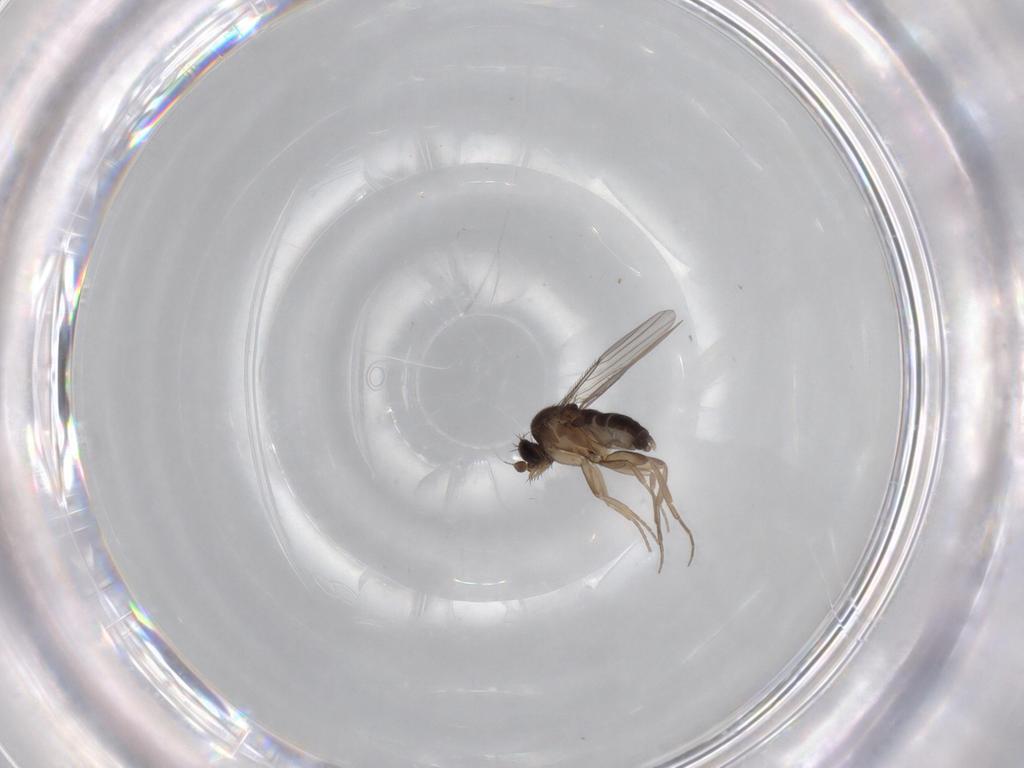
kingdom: Animalia
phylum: Arthropoda
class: Insecta
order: Diptera
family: Phoridae
